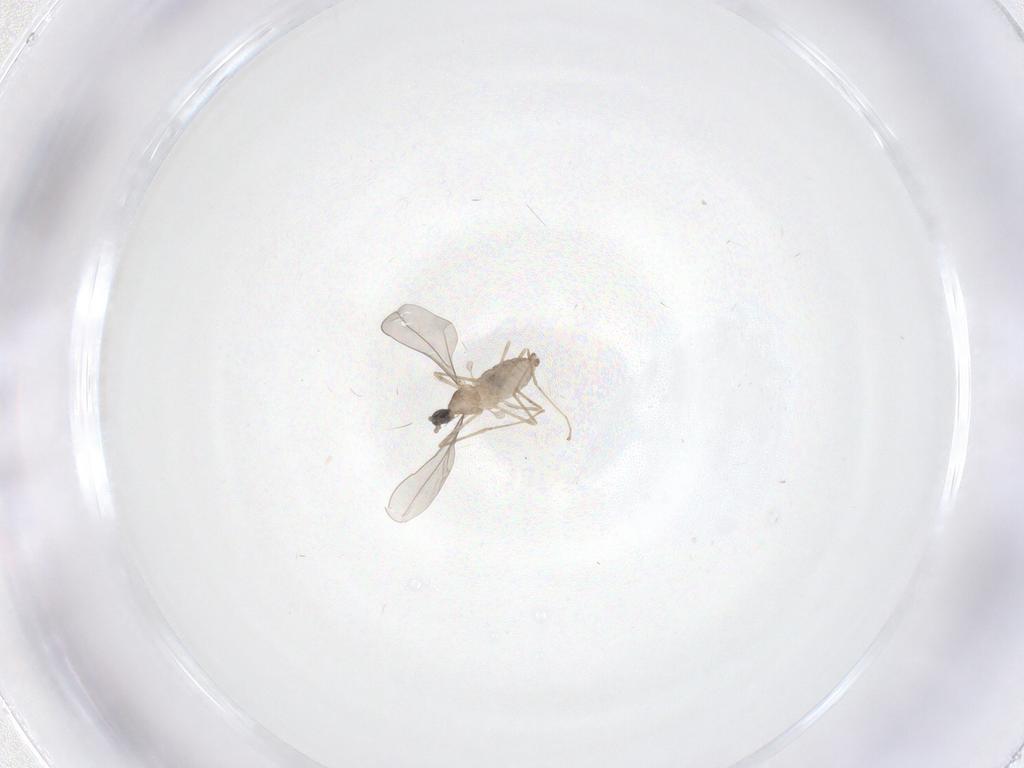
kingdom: Animalia
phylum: Arthropoda
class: Insecta
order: Diptera
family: Cecidomyiidae
